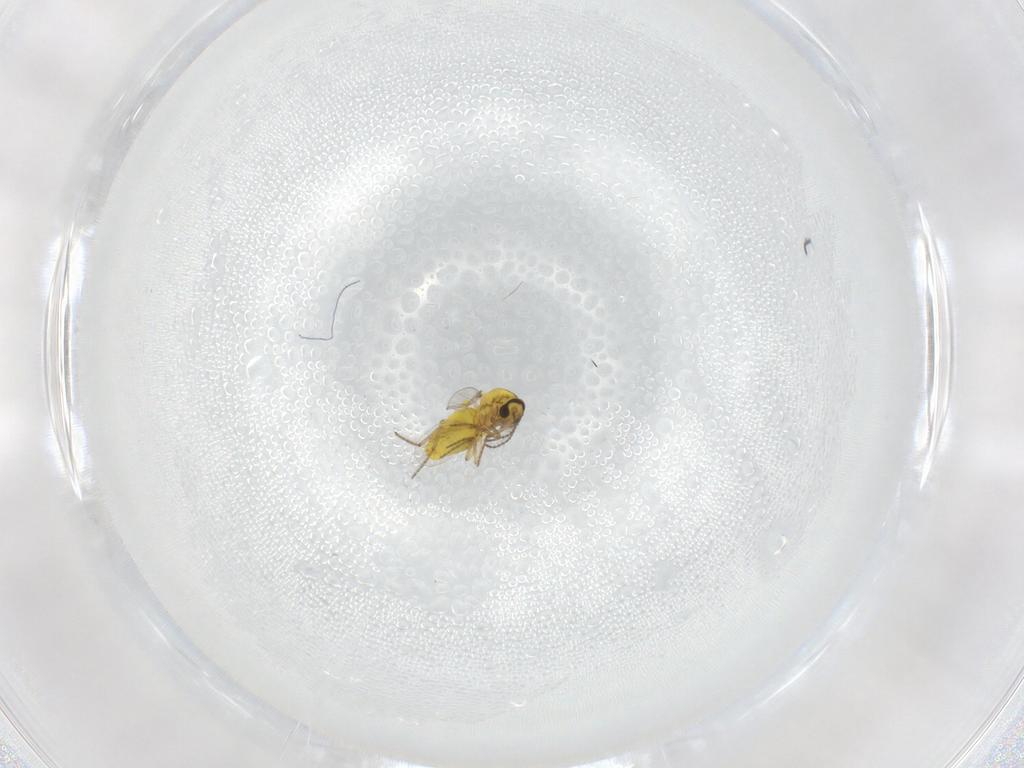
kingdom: Animalia
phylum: Arthropoda
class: Insecta
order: Diptera
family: Ceratopogonidae
